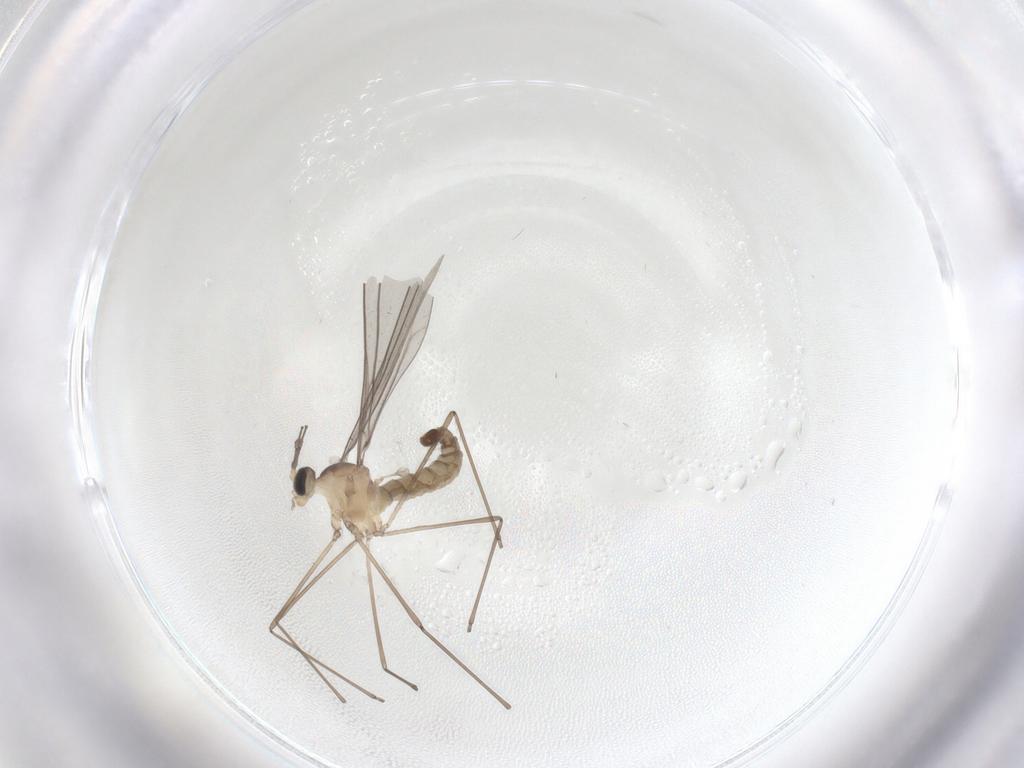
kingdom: Animalia
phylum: Arthropoda
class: Insecta
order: Diptera
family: Cecidomyiidae
